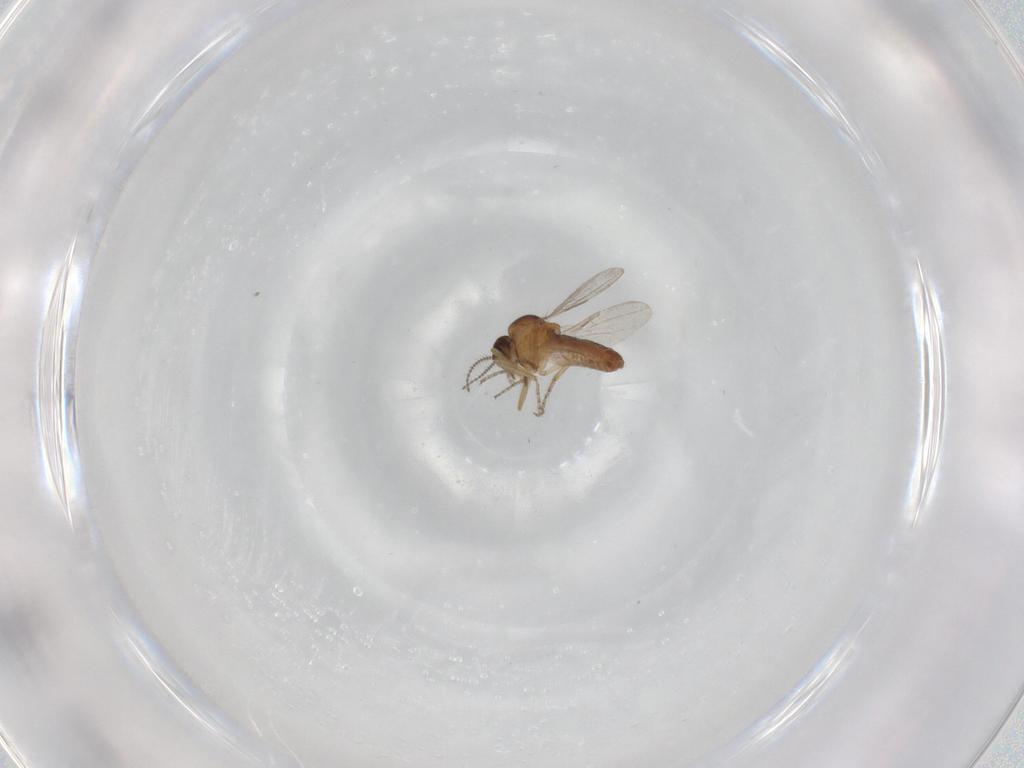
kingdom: Animalia
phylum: Arthropoda
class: Insecta
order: Diptera
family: Ceratopogonidae
